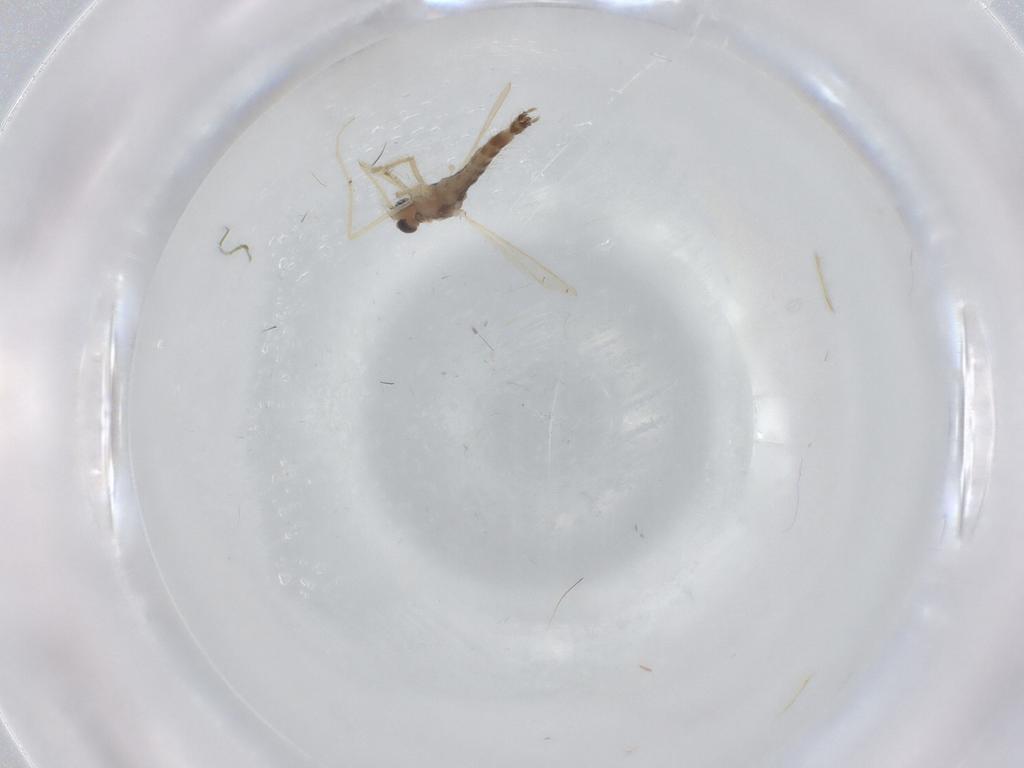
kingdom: Animalia
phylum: Arthropoda
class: Insecta
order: Diptera
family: Chironomidae
